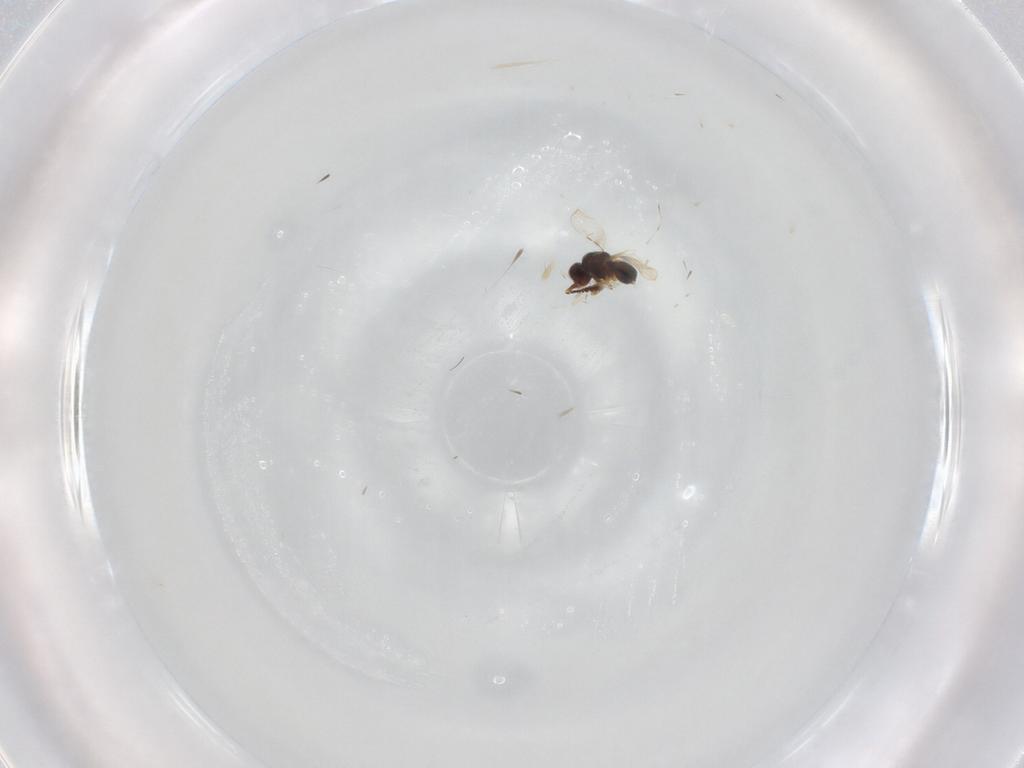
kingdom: Animalia
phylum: Arthropoda
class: Insecta
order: Hymenoptera
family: Ceraphronidae
